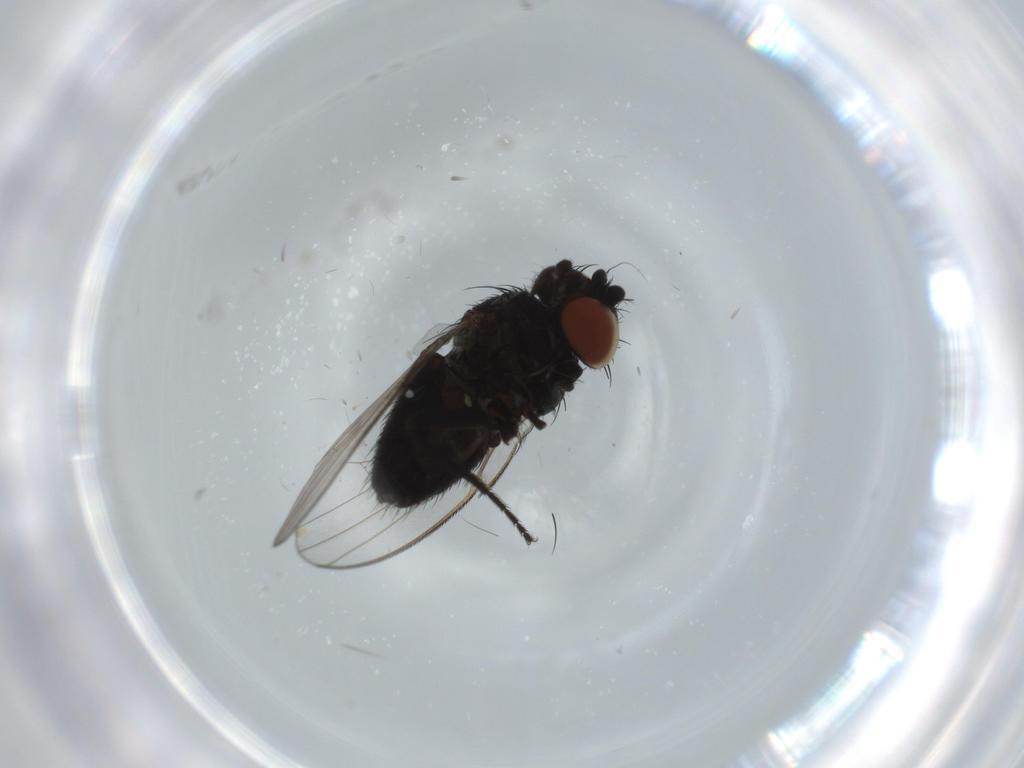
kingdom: Animalia
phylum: Arthropoda
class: Insecta
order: Diptera
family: Milichiidae
